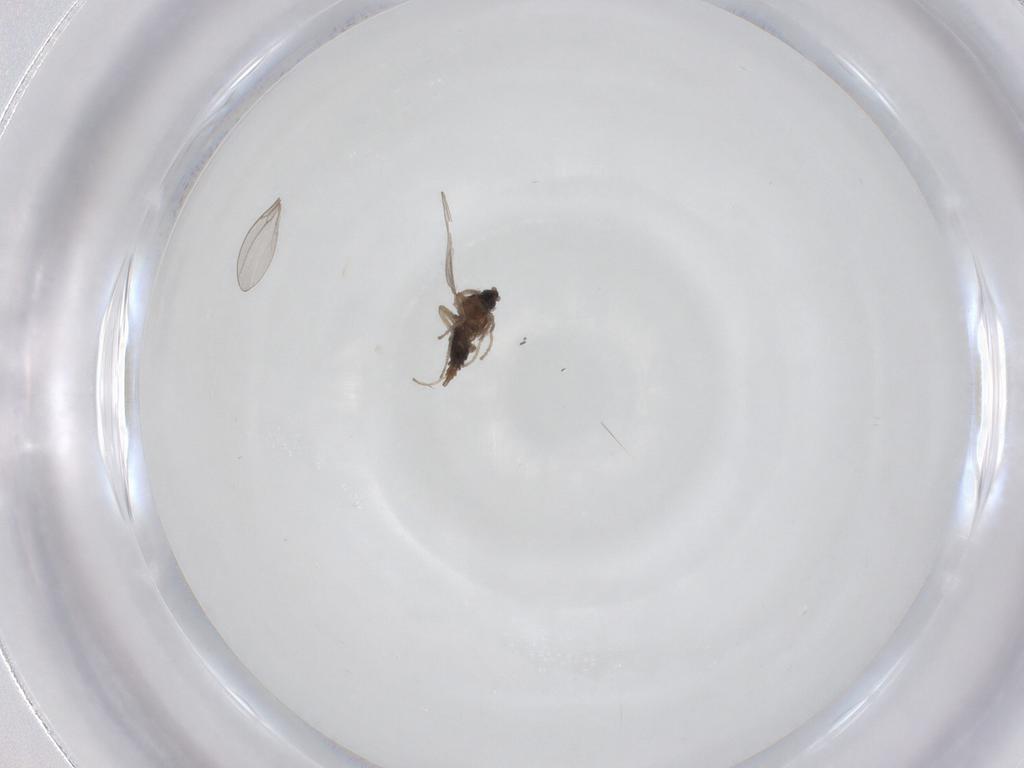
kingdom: Animalia
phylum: Arthropoda
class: Insecta
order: Diptera
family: Cecidomyiidae
